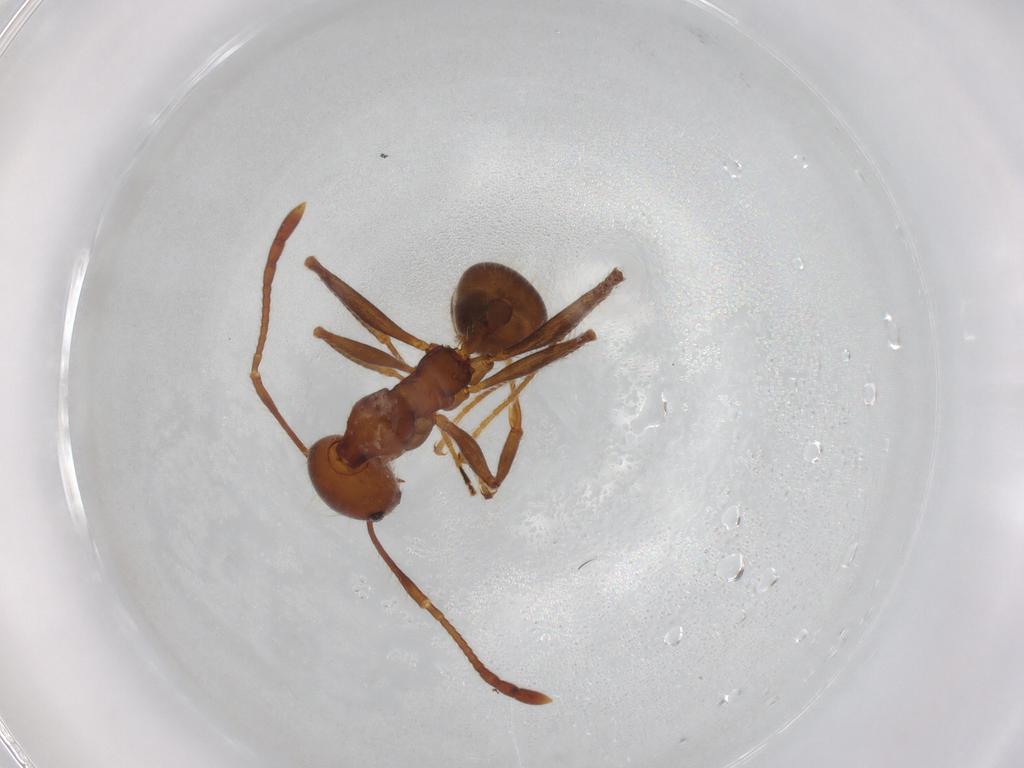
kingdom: Animalia
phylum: Arthropoda
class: Insecta
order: Hymenoptera
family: Formicidae
